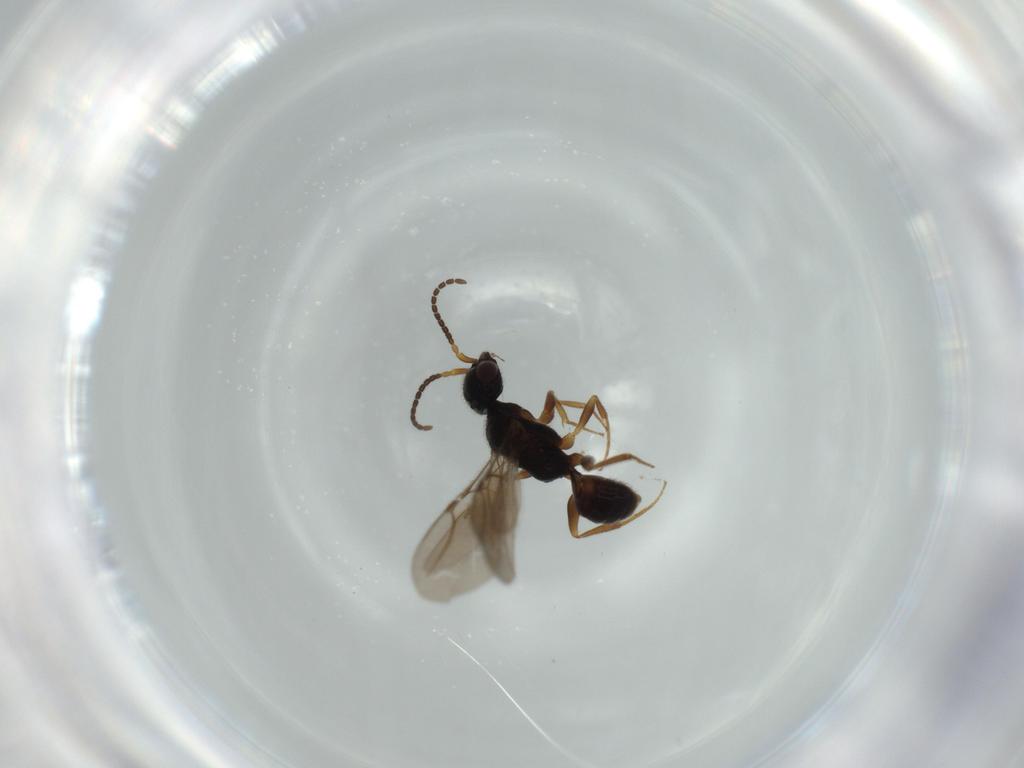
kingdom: Animalia
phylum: Arthropoda
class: Insecta
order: Hymenoptera
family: Bethylidae
